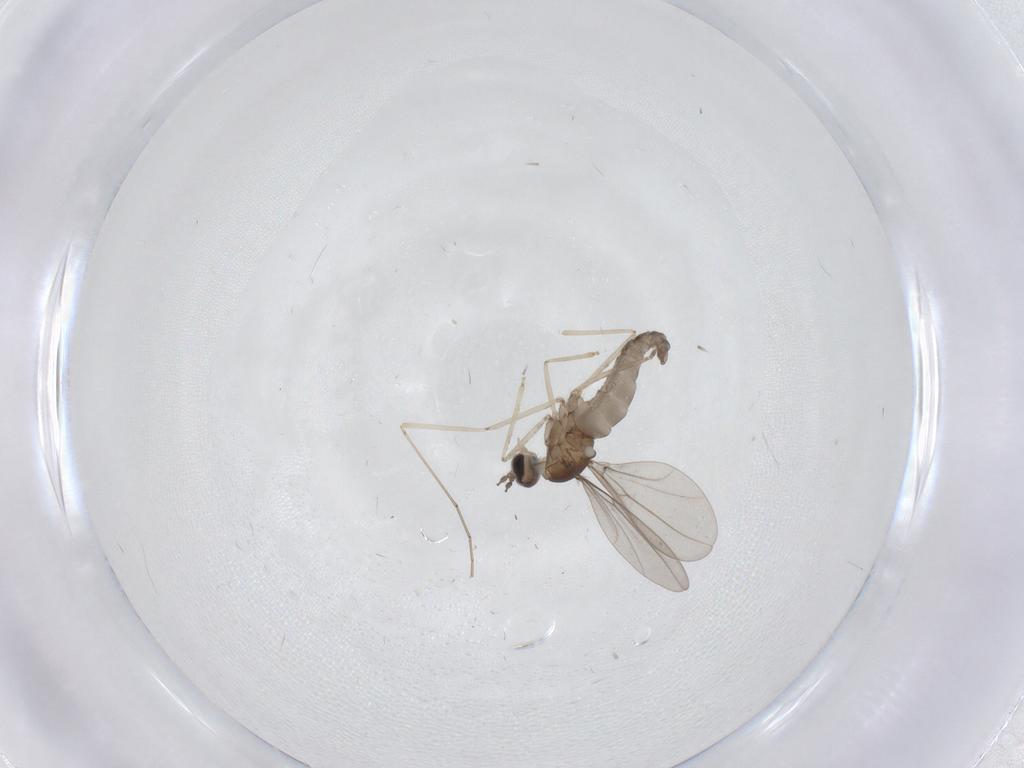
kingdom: Animalia
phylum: Arthropoda
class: Insecta
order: Diptera
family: Cecidomyiidae
